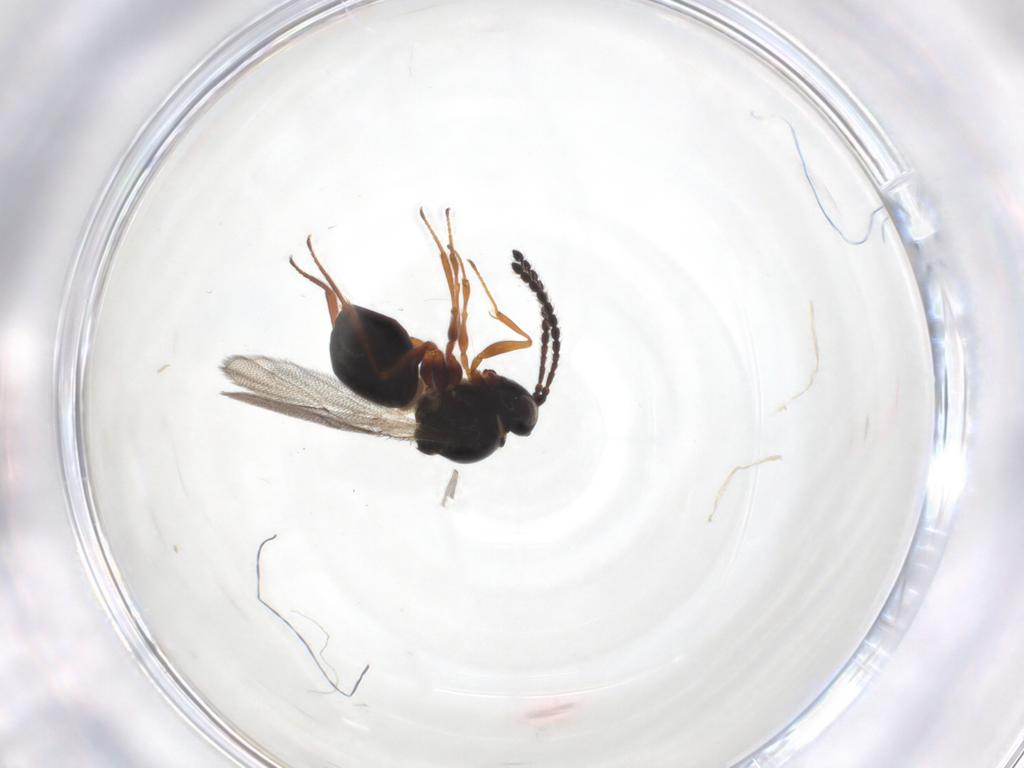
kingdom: Animalia
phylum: Arthropoda
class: Insecta
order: Hymenoptera
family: Figitidae
